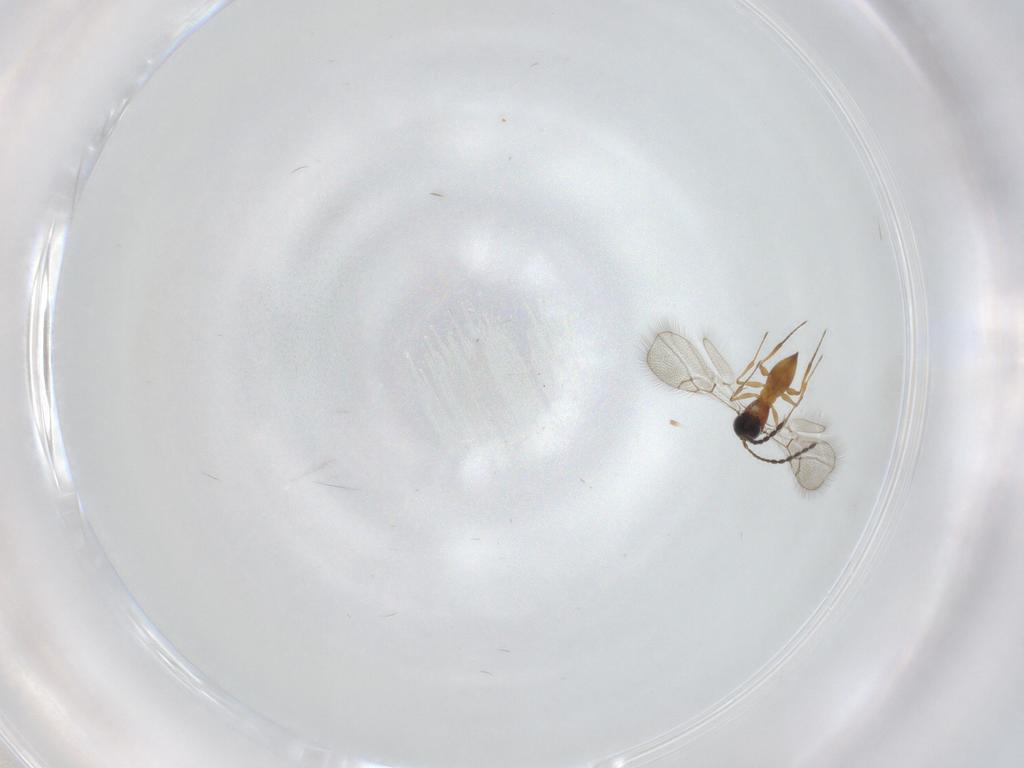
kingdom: Animalia
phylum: Arthropoda
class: Insecta
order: Hymenoptera
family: Figitidae
